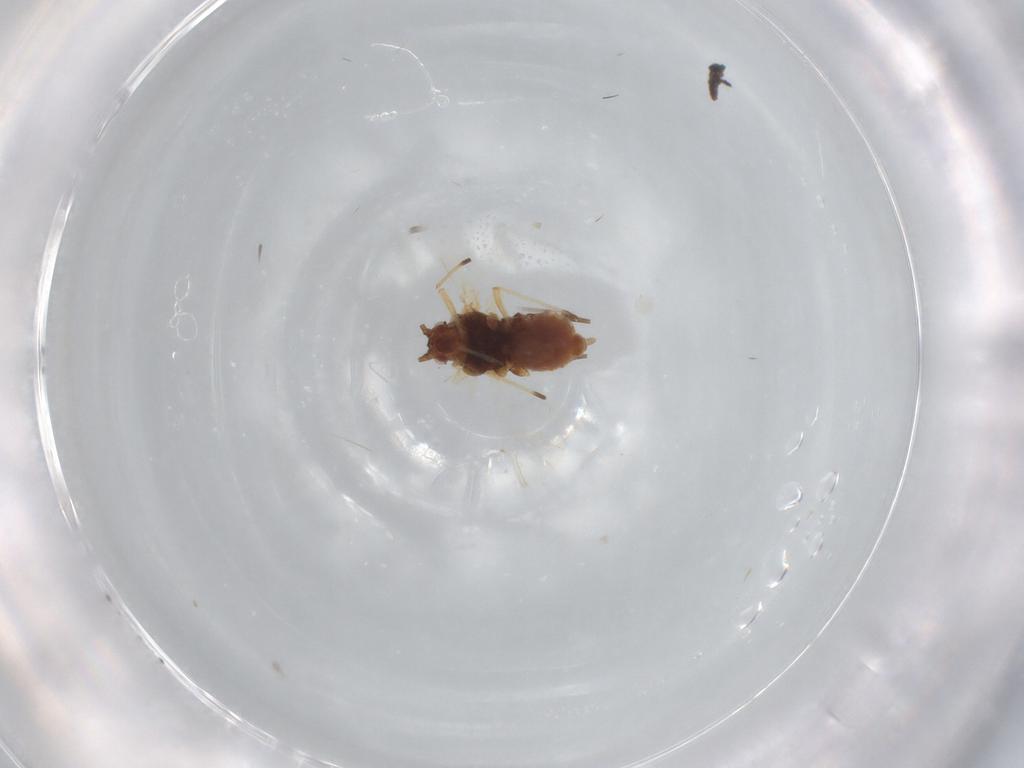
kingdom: Animalia
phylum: Arthropoda
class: Insecta
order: Hemiptera
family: Aphididae
